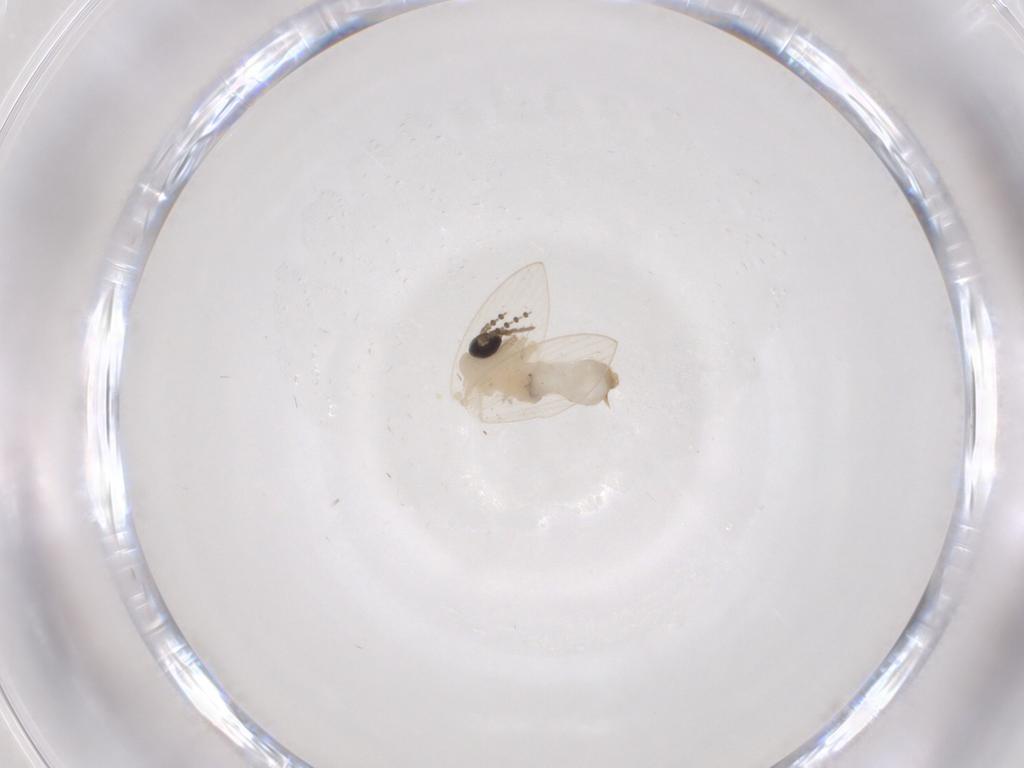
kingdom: Animalia
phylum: Arthropoda
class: Insecta
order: Diptera
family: Psychodidae
